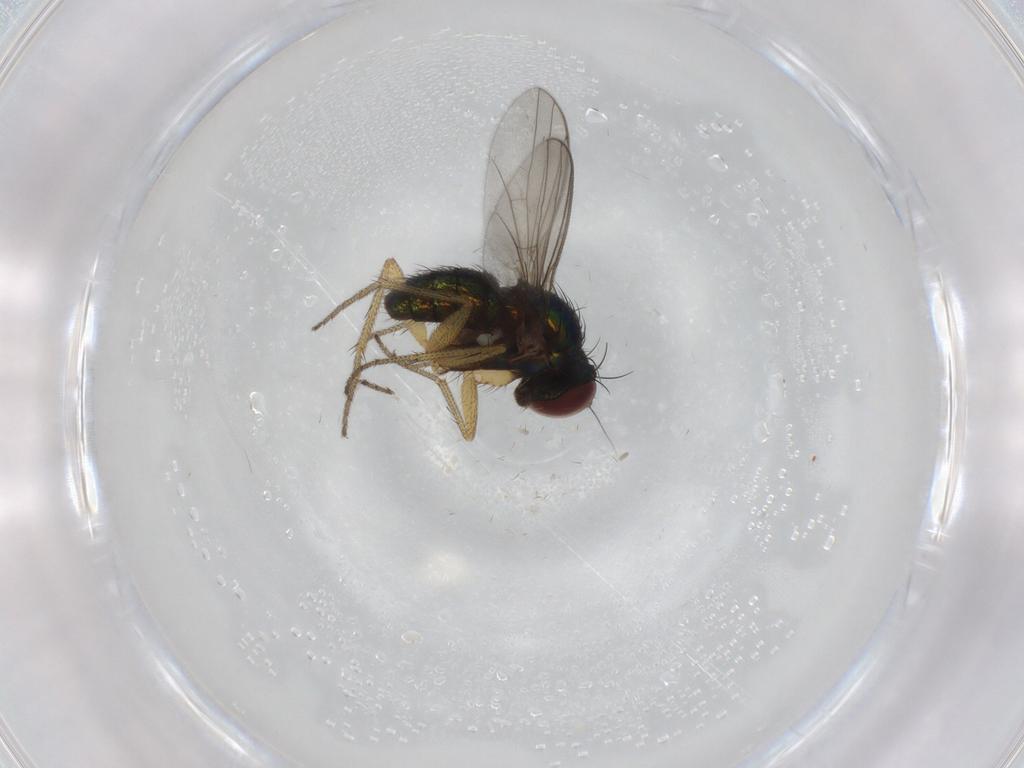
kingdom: Animalia
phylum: Arthropoda
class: Insecta
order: Diptera
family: Dolichopodidae
